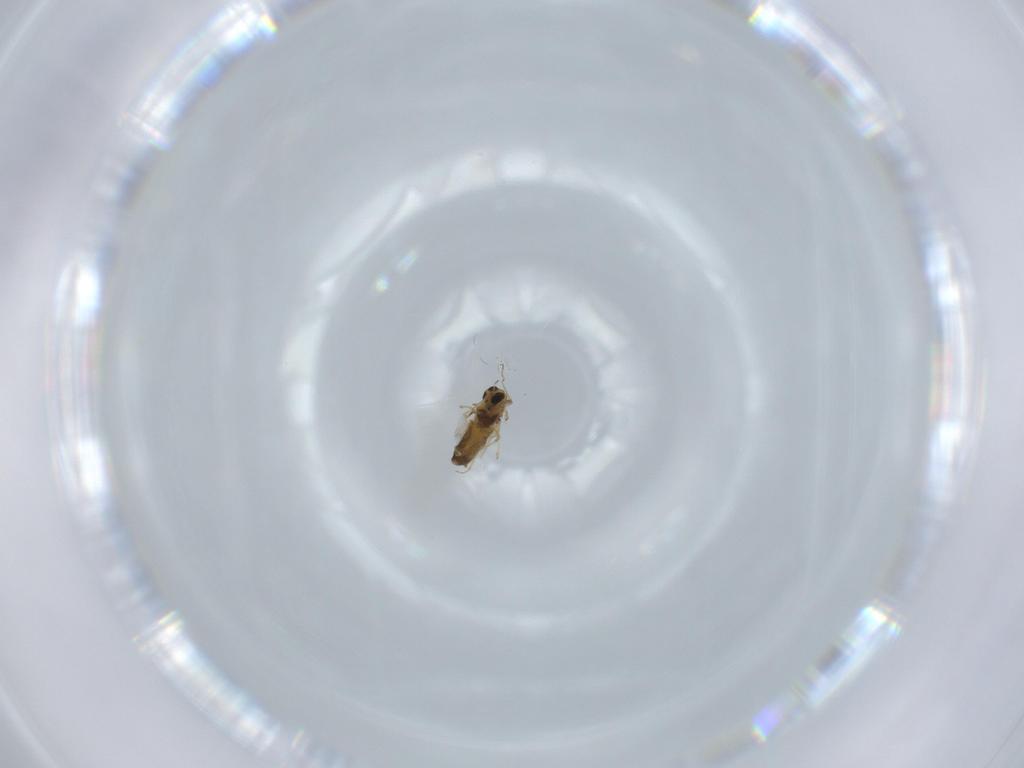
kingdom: Animalia
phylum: Arthropoda
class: Insecta
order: Diptera
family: Chironomidae
